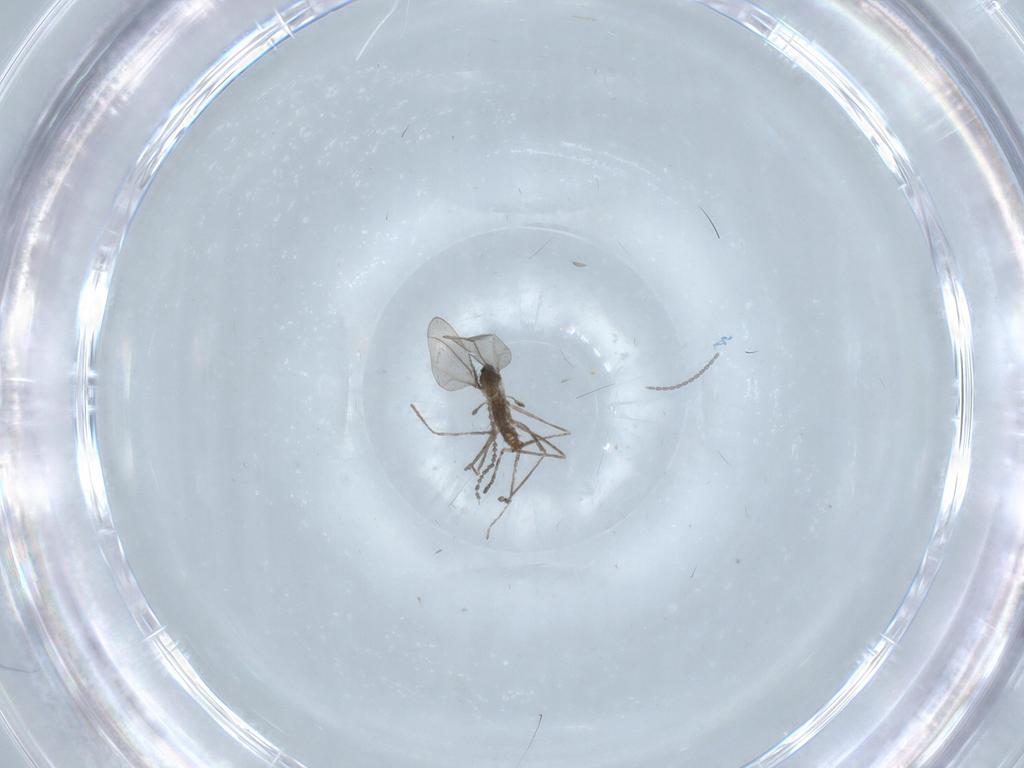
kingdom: Animalia
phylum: Arthropoda
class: Insecta
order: Diptera
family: Cecidomyiidae
